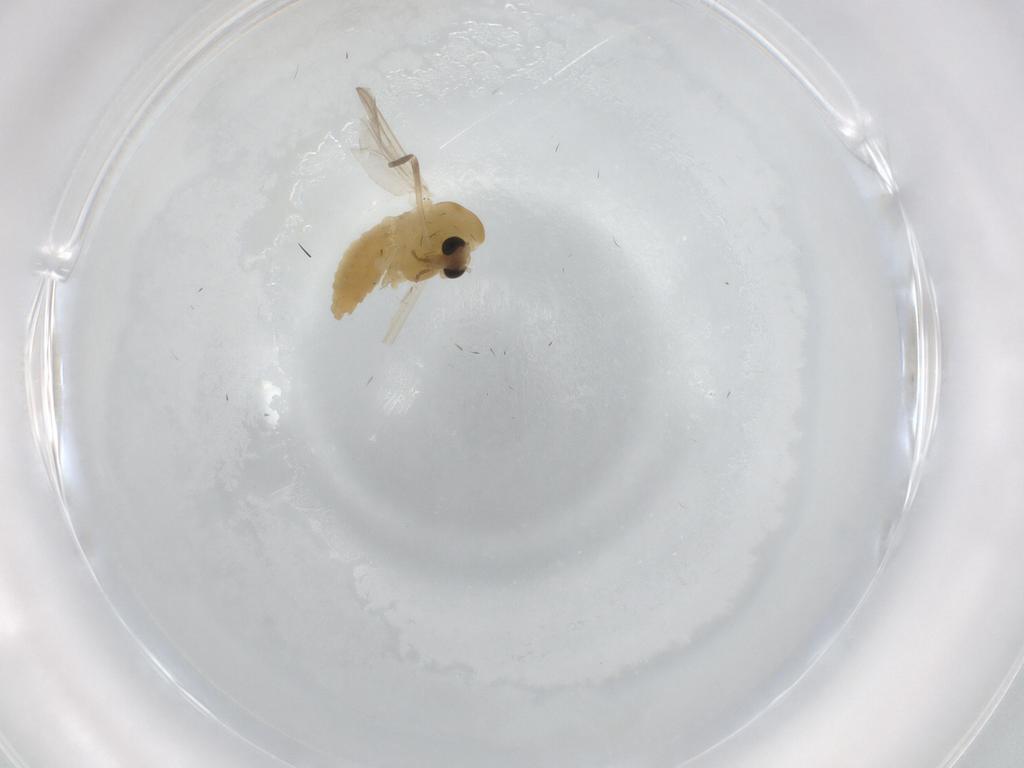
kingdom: Animalia
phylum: Arthropoda
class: Insecta
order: Diptera
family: Chironomidae
